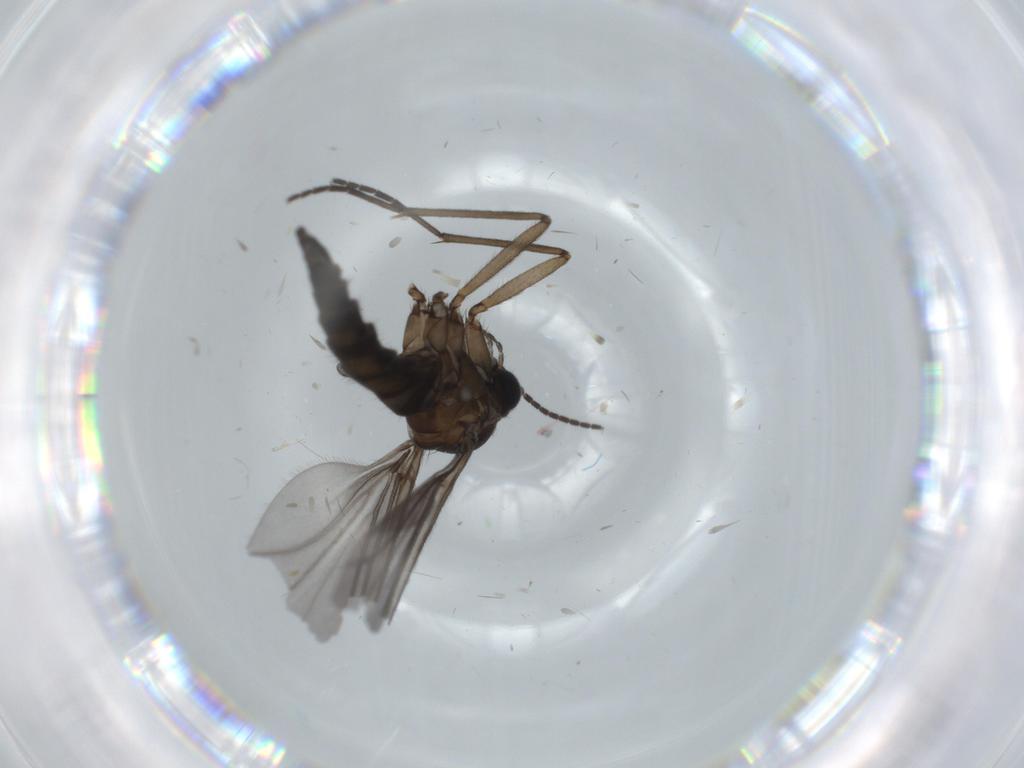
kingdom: Animalia
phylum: Arthropoda
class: Insecta
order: Diptera
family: Sciaridae
